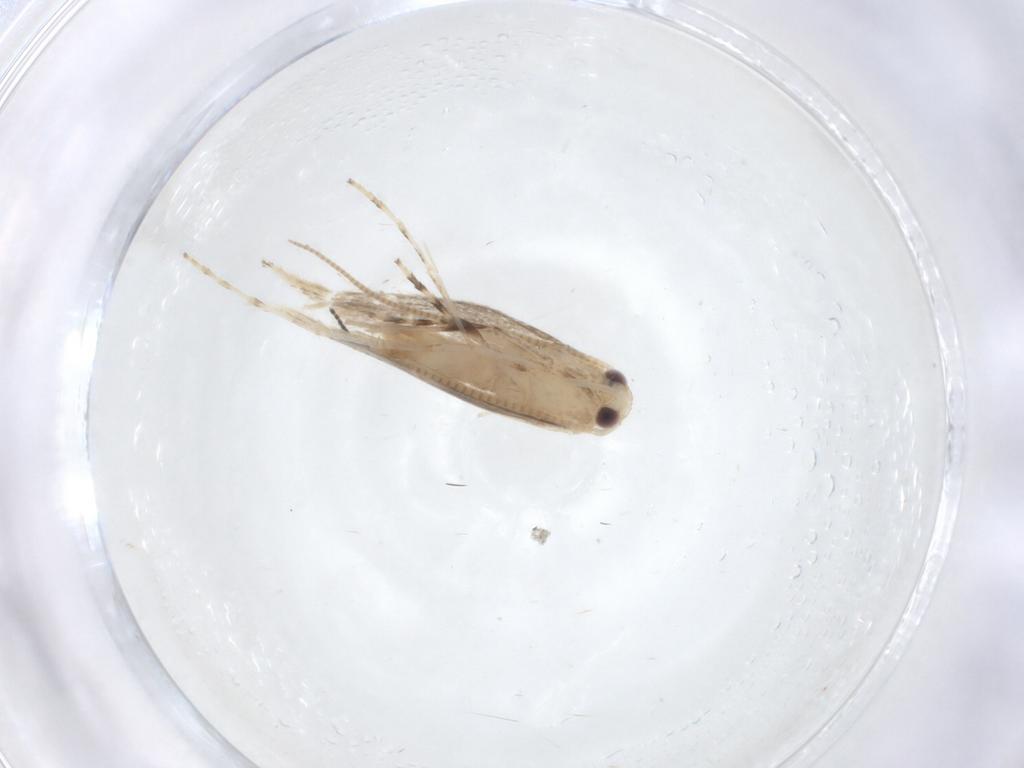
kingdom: Animalia
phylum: Arthropoda
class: Insecta
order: Lepidoptera
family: Gracillariidae
